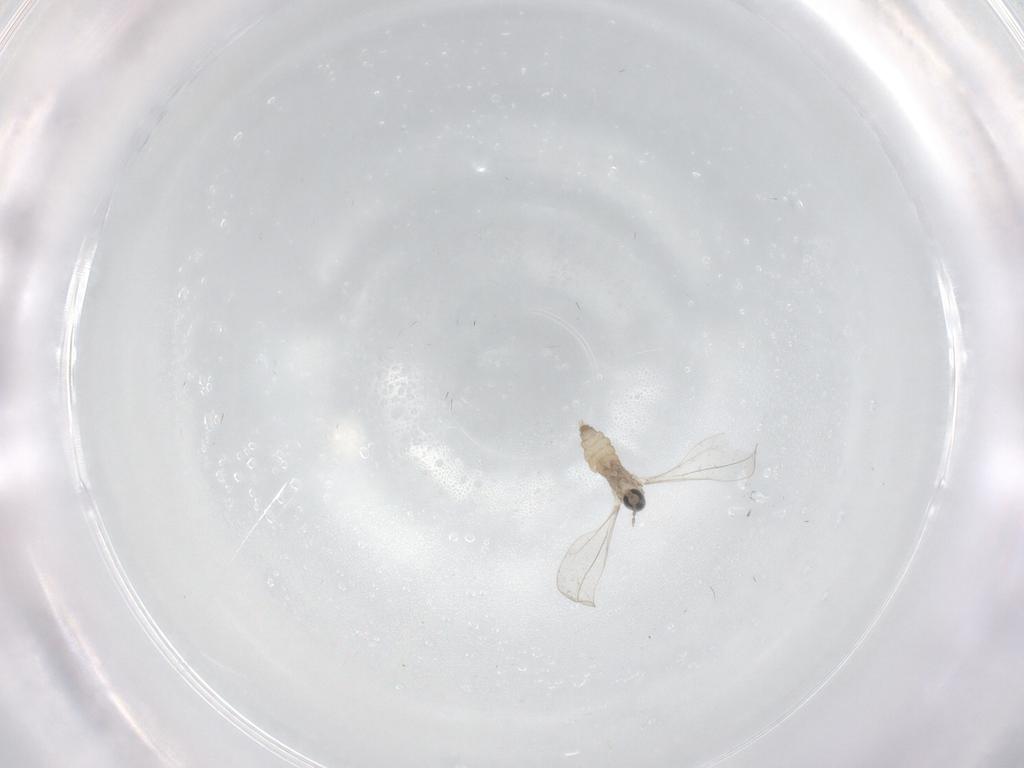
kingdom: Animalia
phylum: Arthropoda
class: Insecta
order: Diptera
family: Cecidomyiidae
